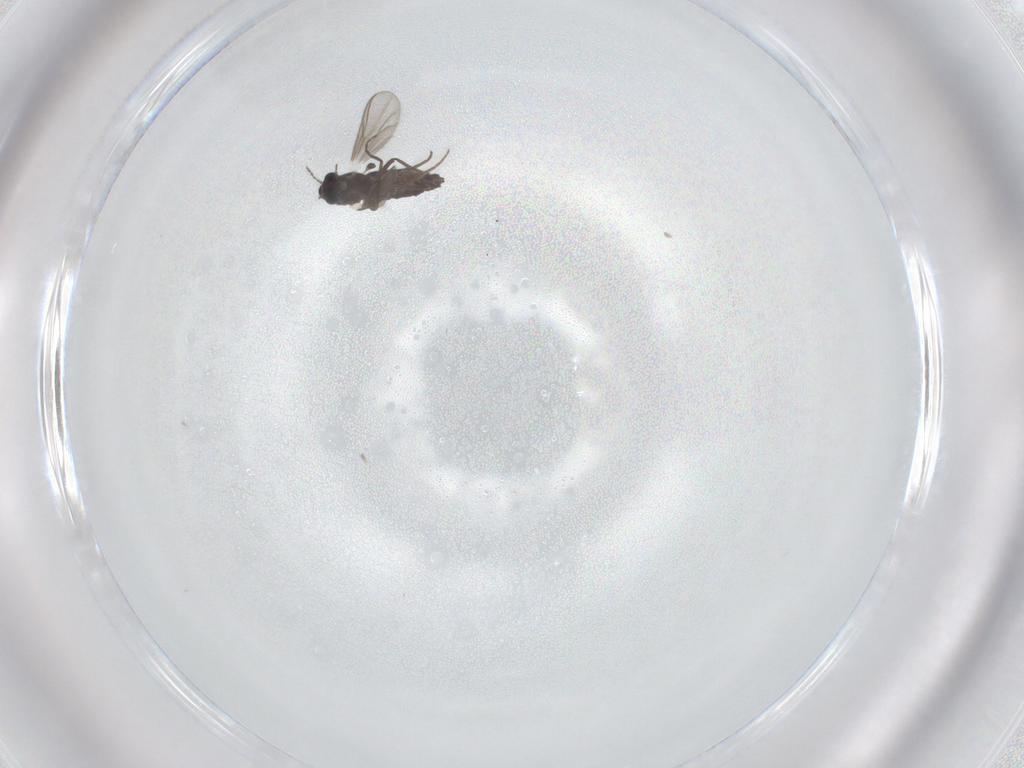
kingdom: Animalia
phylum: Arthropoda
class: Insecta
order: Diptera
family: Chironomidae
